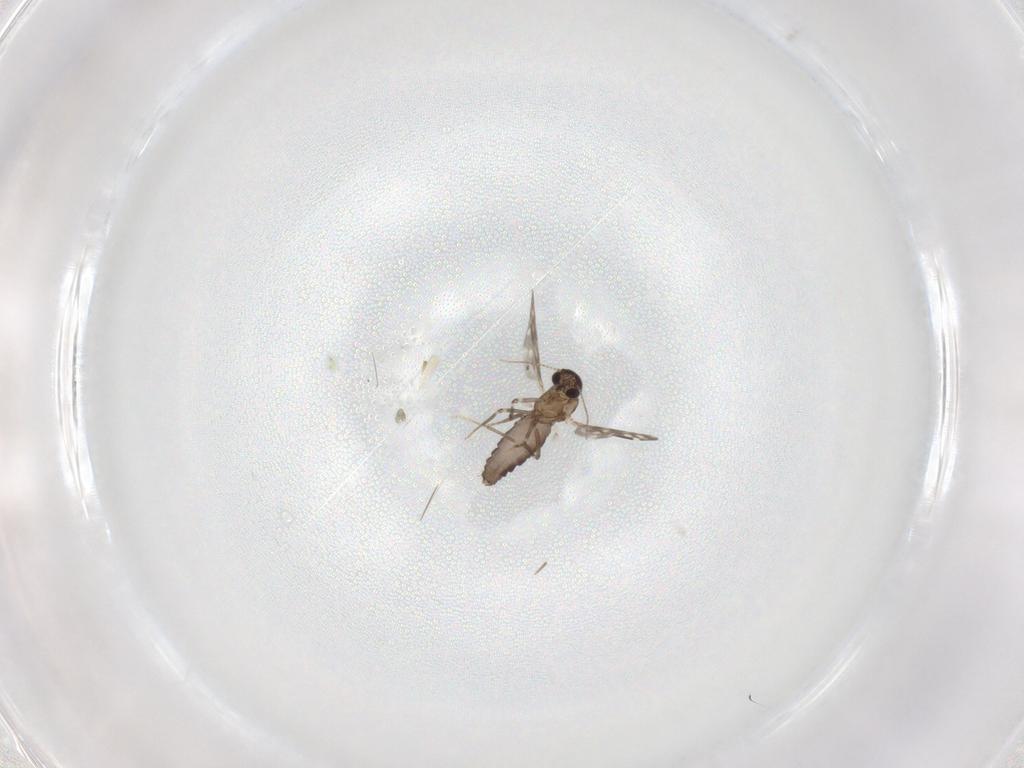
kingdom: Animalia
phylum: Arthropoda
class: Insecta
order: Diptera
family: Ceratopogonidae
